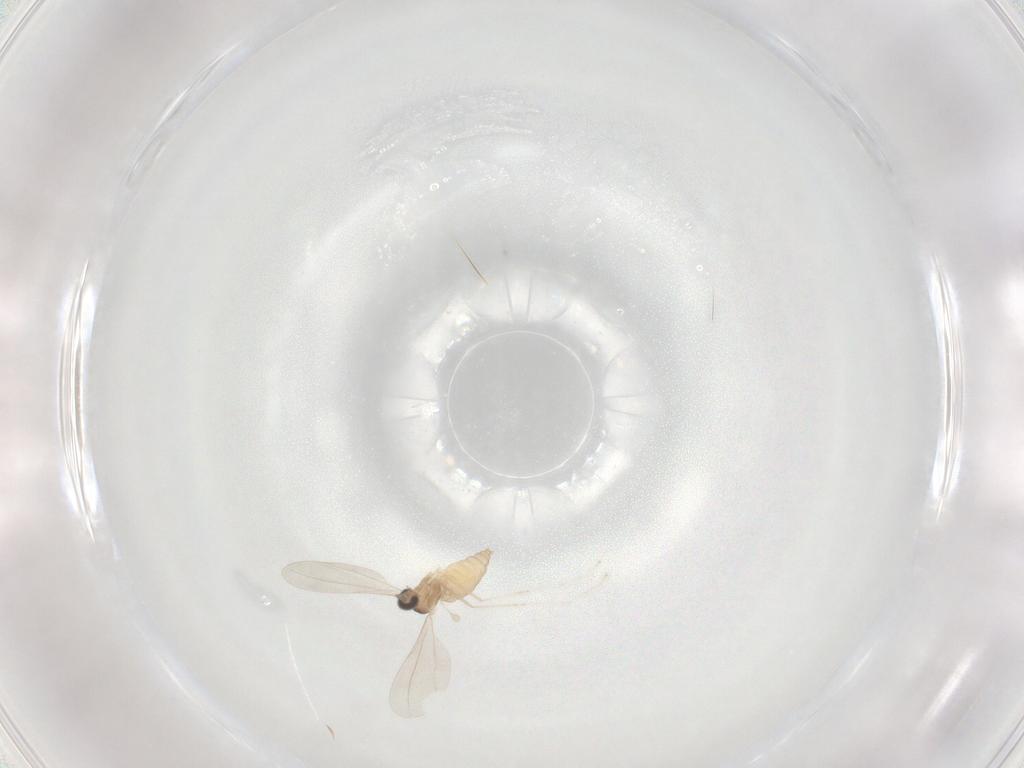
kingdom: Animalia
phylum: Arthropoda
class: Insecta
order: Diptera
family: Cecidomyiidae
